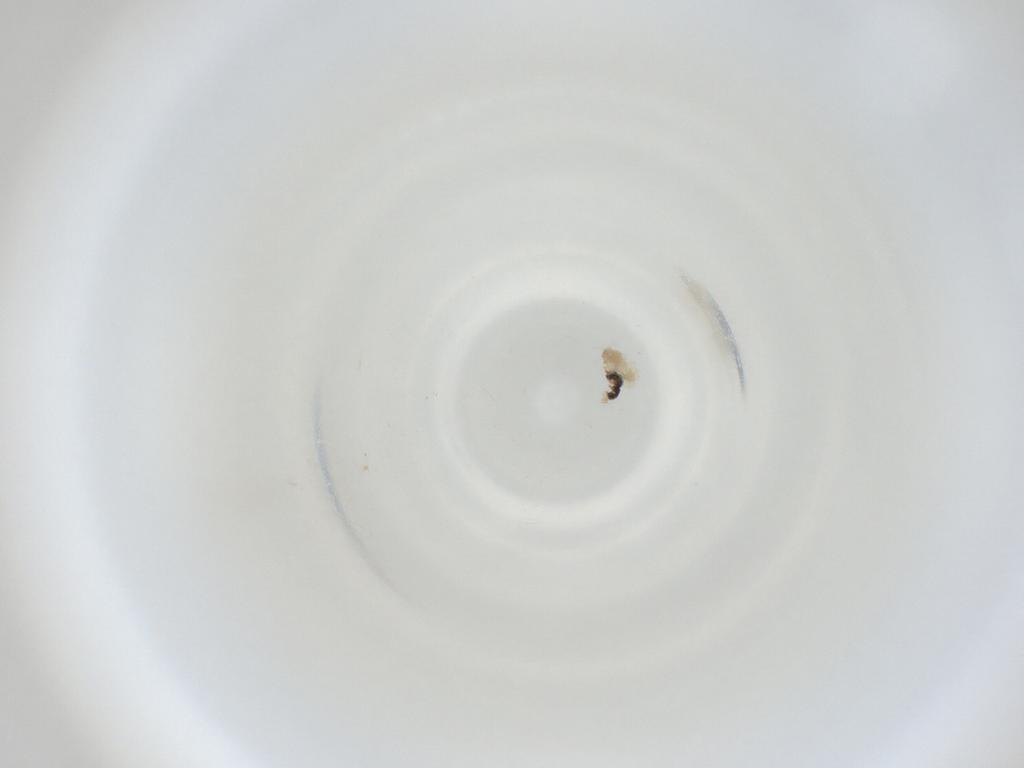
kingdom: Animalia
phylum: Arthropoda
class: Insecta
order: Diptera
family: Cecidomyiidae
